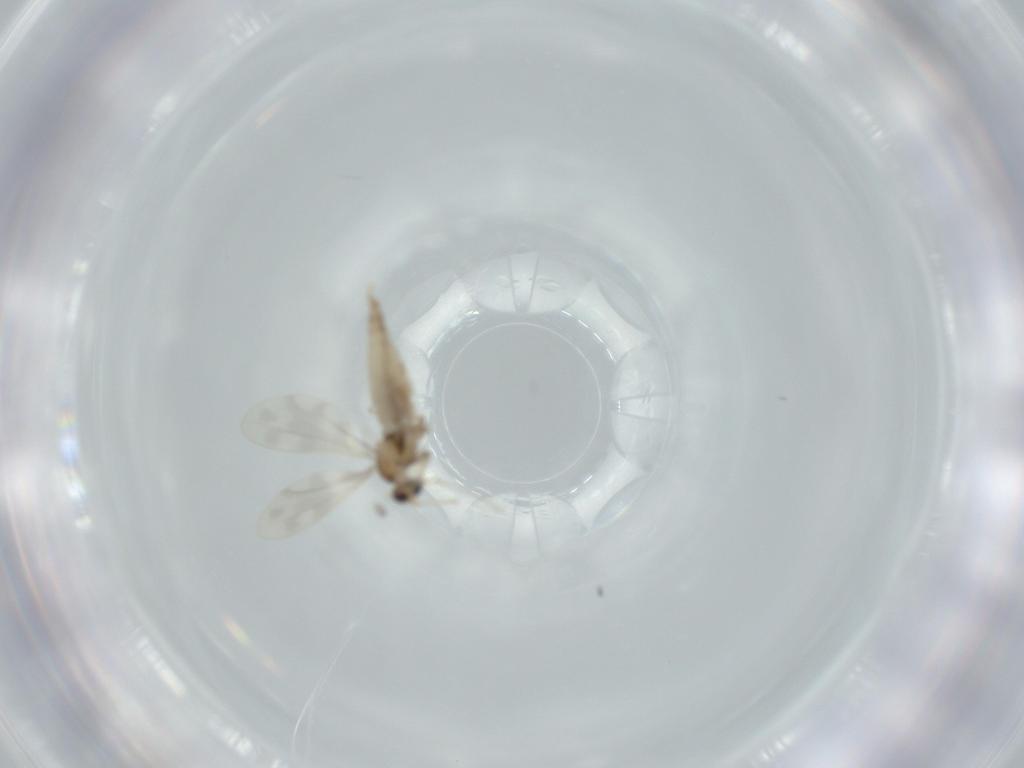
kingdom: Animalia
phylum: Arthropoda
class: Insecta
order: Diptera
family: Cecidomyiidae
